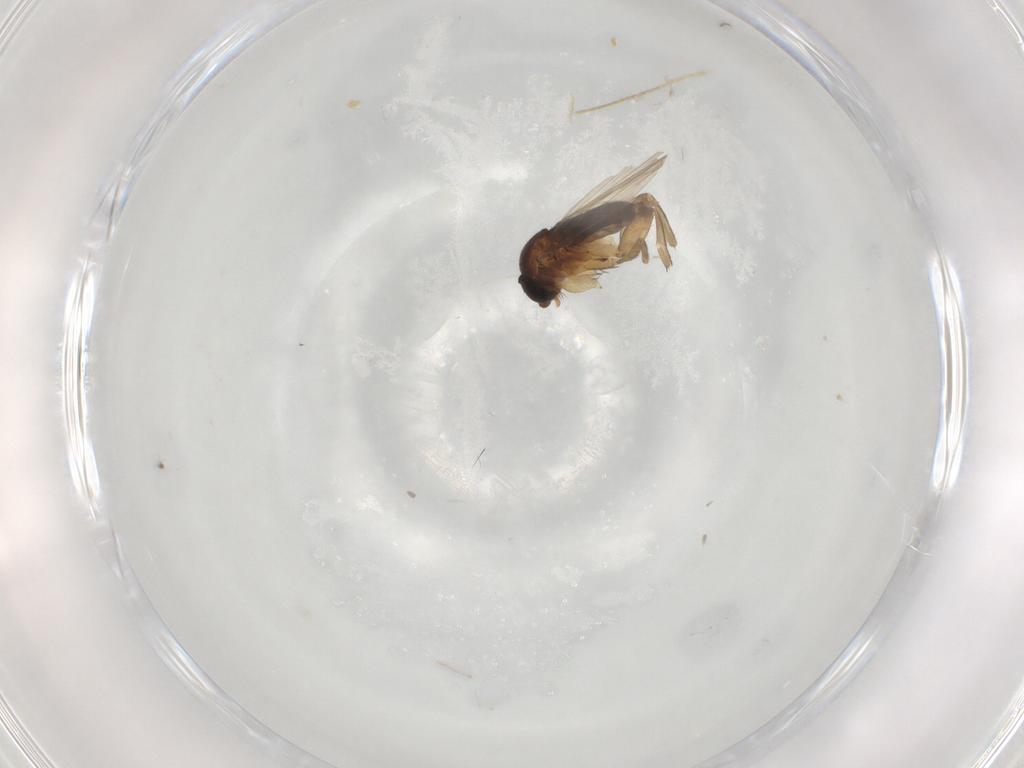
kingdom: Animalia
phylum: Arthropoda
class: Insecta
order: Diptera
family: Phoridae
